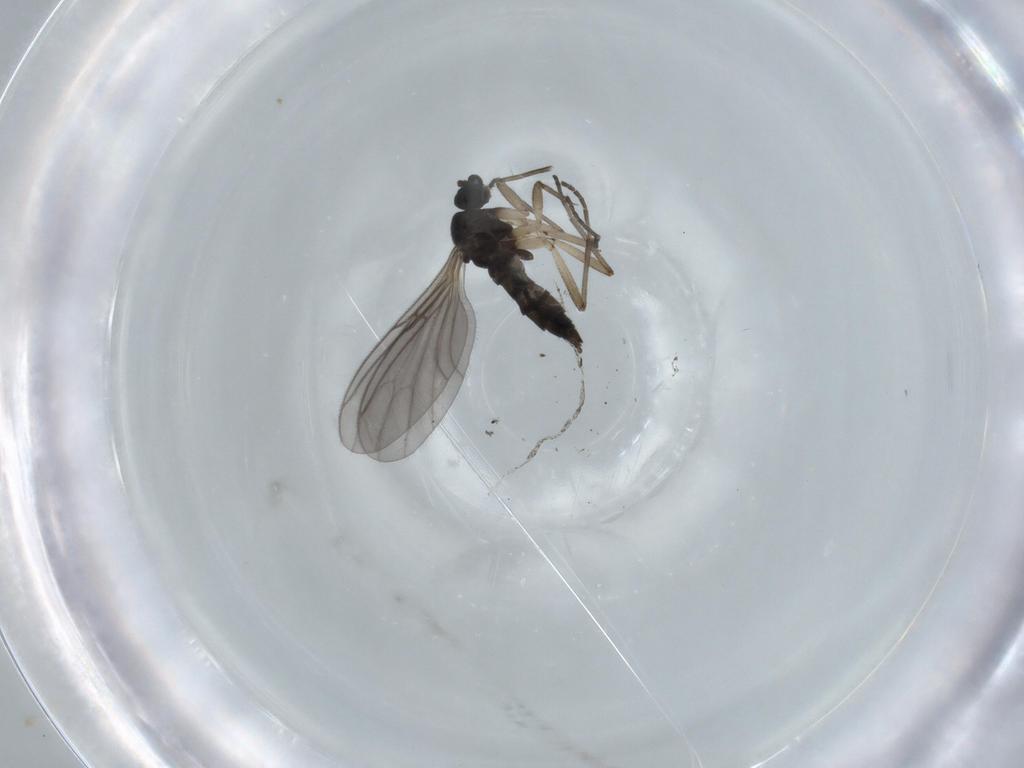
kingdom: Animalia
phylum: Arthropoda
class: Insecta
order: Diptera
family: Sciaridae
